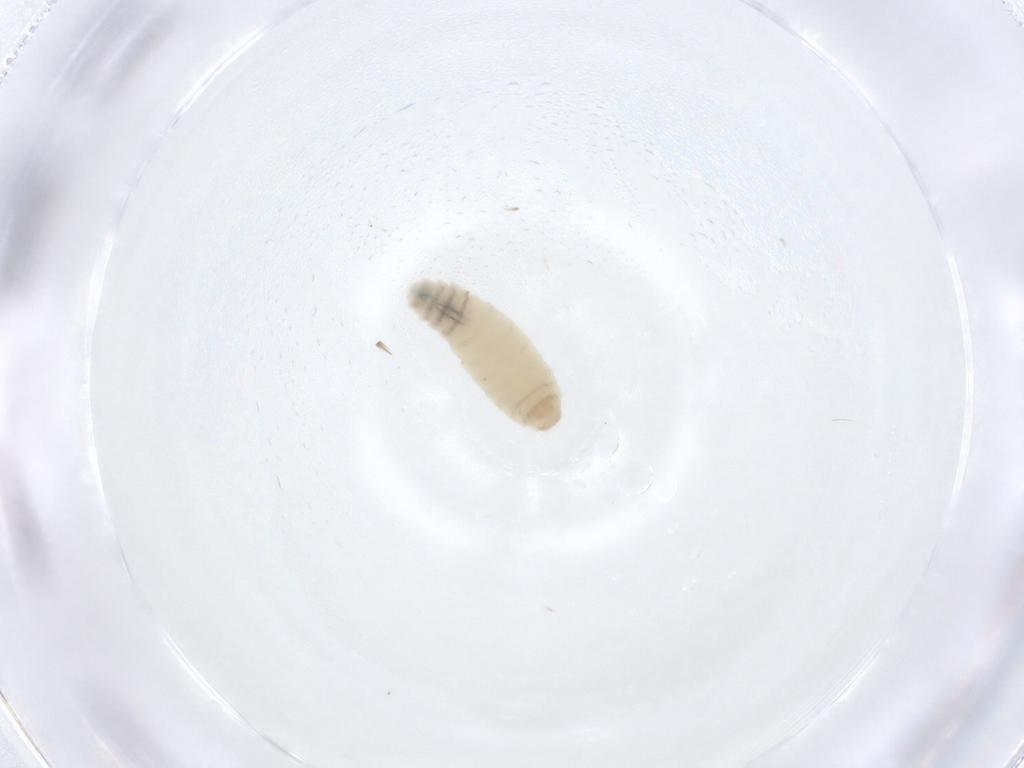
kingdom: Animalia
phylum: Arthropoda
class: Insecta
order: Diptera
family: Sarcophagidae
